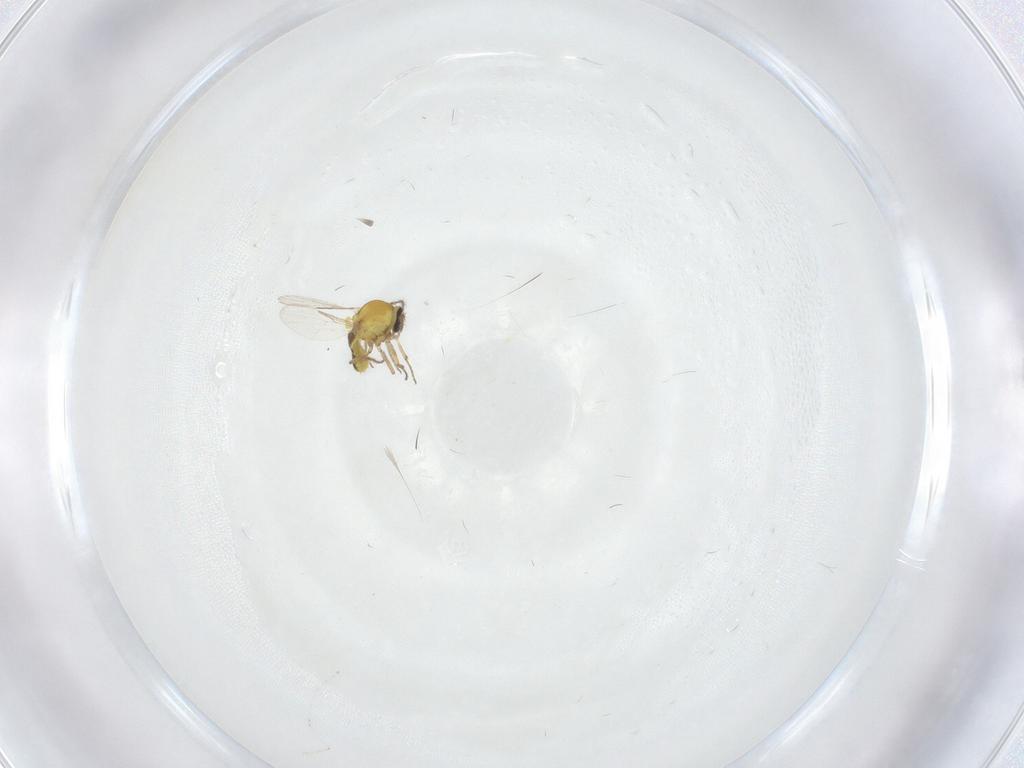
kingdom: Animalia
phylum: Arthropoda
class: Insecta
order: Diptera
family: Ceratopogonidae
